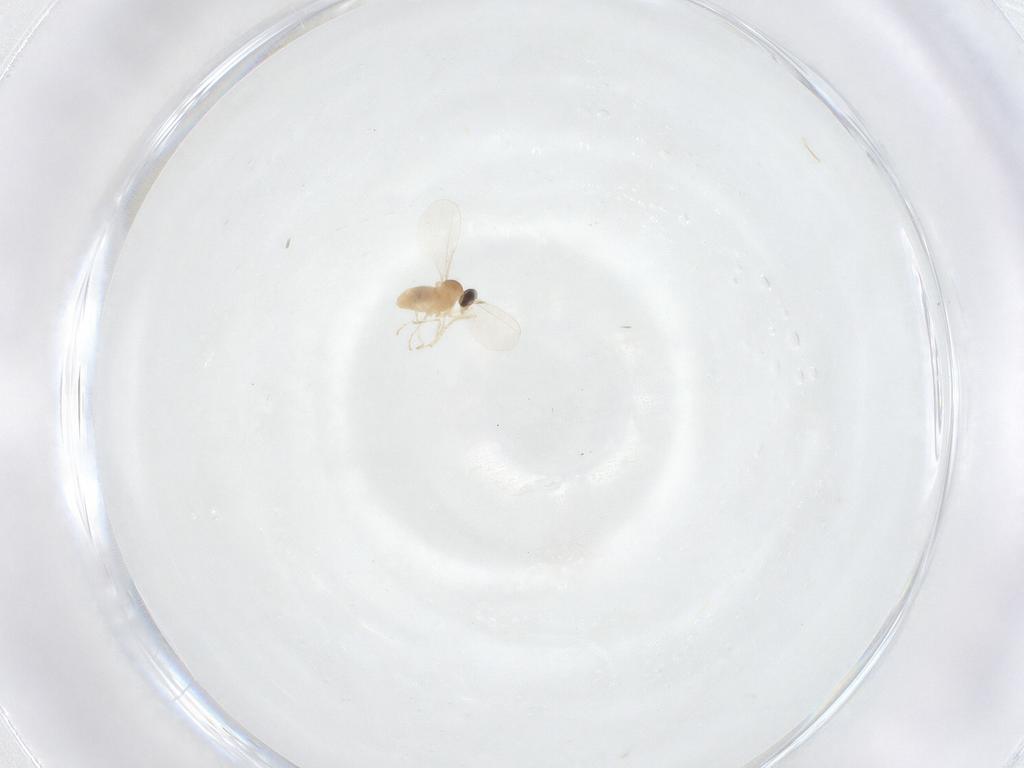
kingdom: Animalia
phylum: Arthropoda
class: Insecta
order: Diptera
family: Cecidomyiidae
